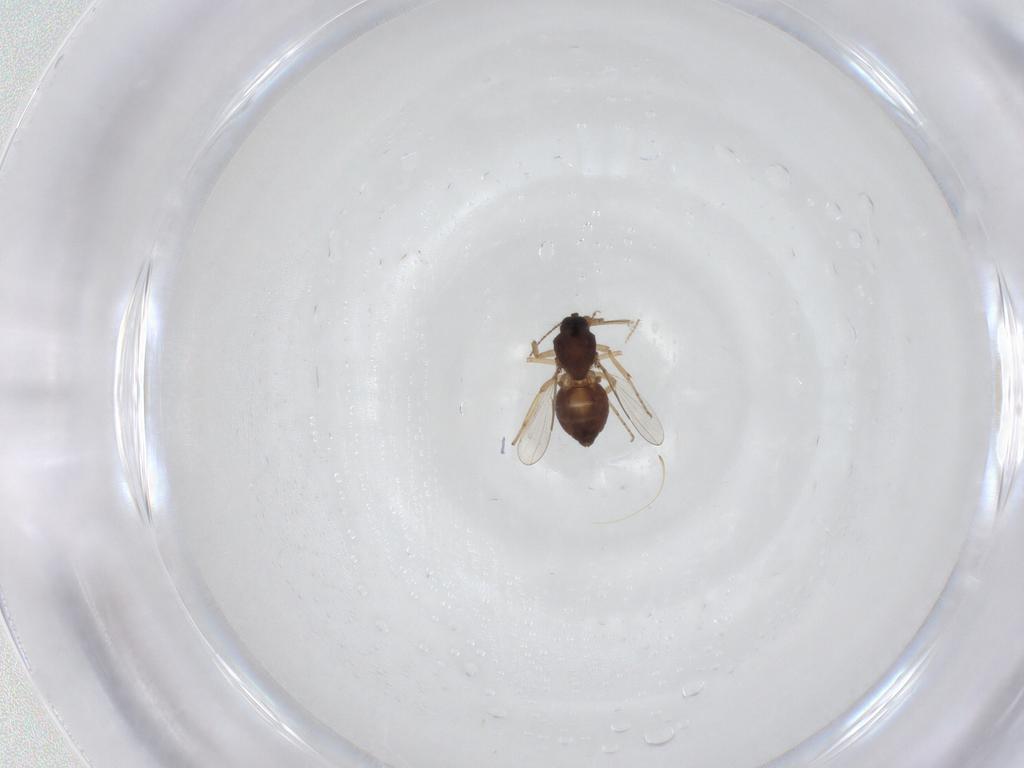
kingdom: Animalia
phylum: Arthropoda
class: Insecta
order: Diptera
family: Ceratopogonidae
